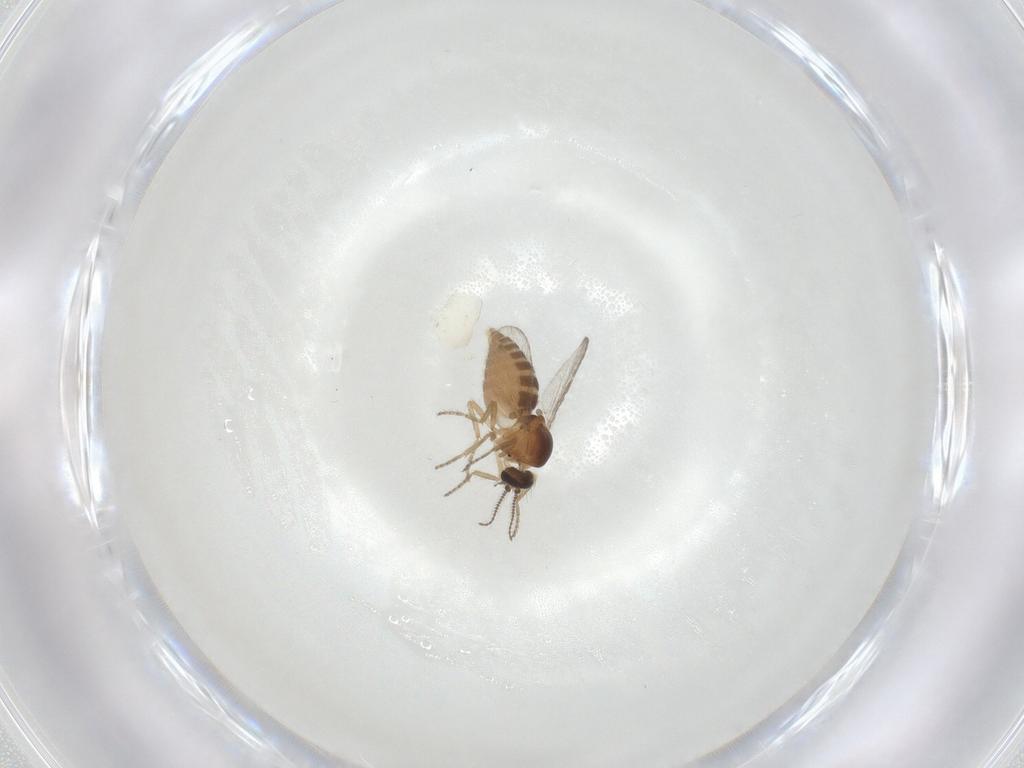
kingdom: Animalia
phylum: Arthropoda
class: Insecta
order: Diptera
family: Ceratopogonidae
